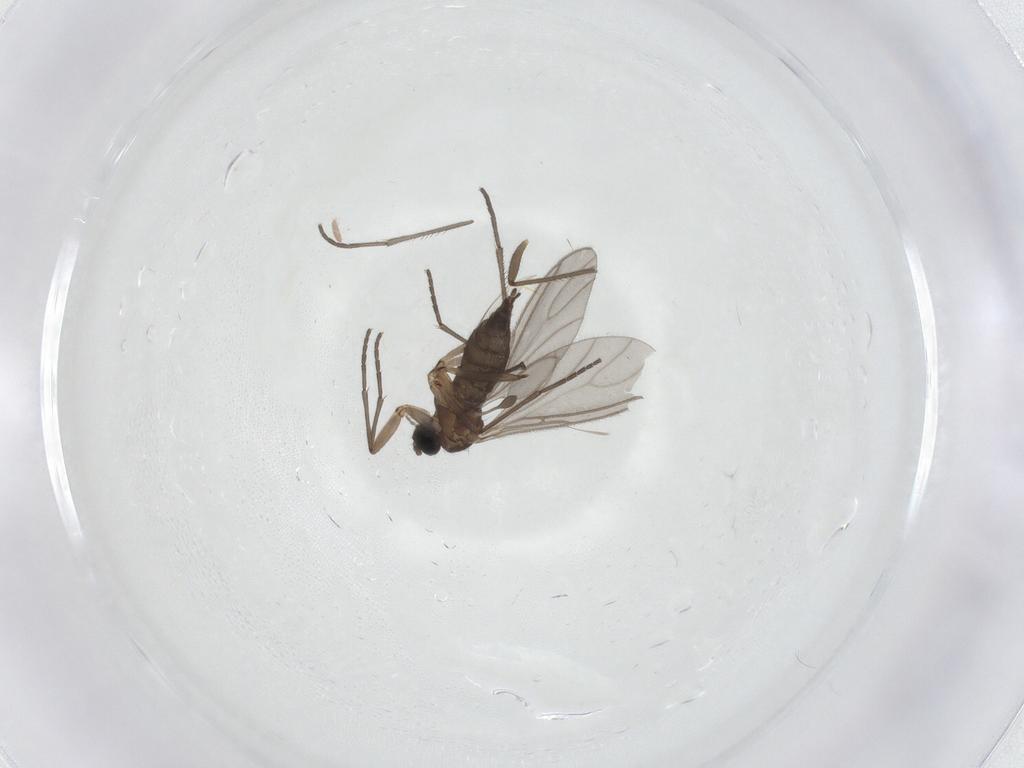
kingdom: Animalia
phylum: Arthropoda
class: Insecta
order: Diptera
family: Sciaridae
